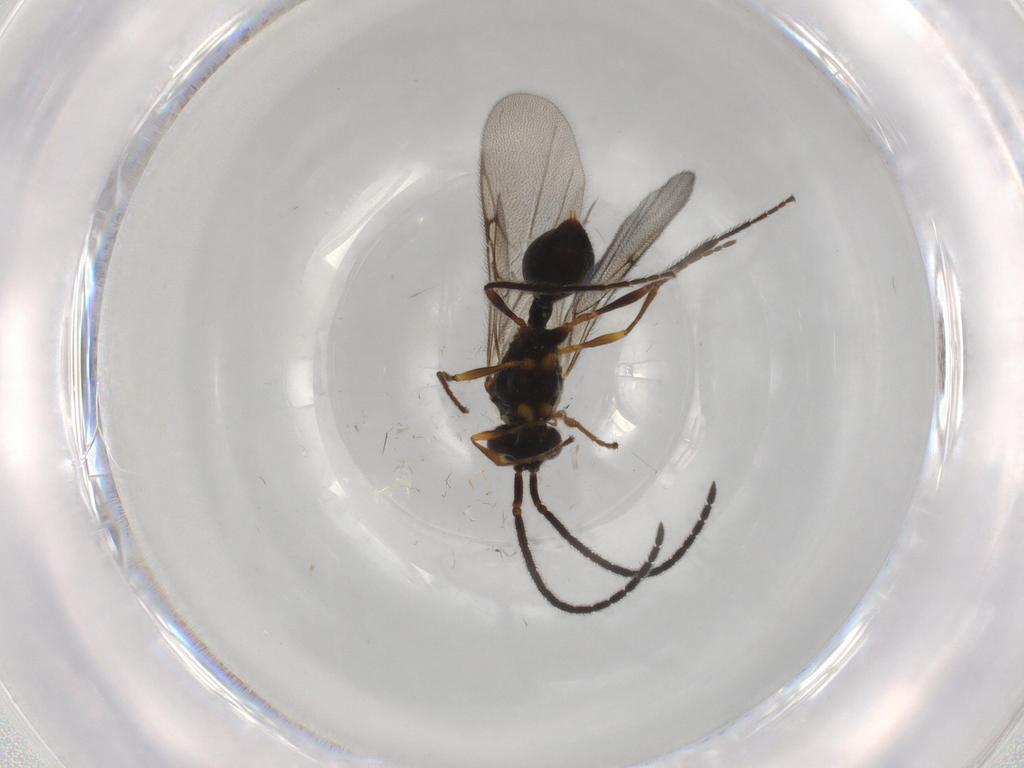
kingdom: Animalia
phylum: Arthropoda
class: Insecta
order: Hymenoptera
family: Diapriidae
